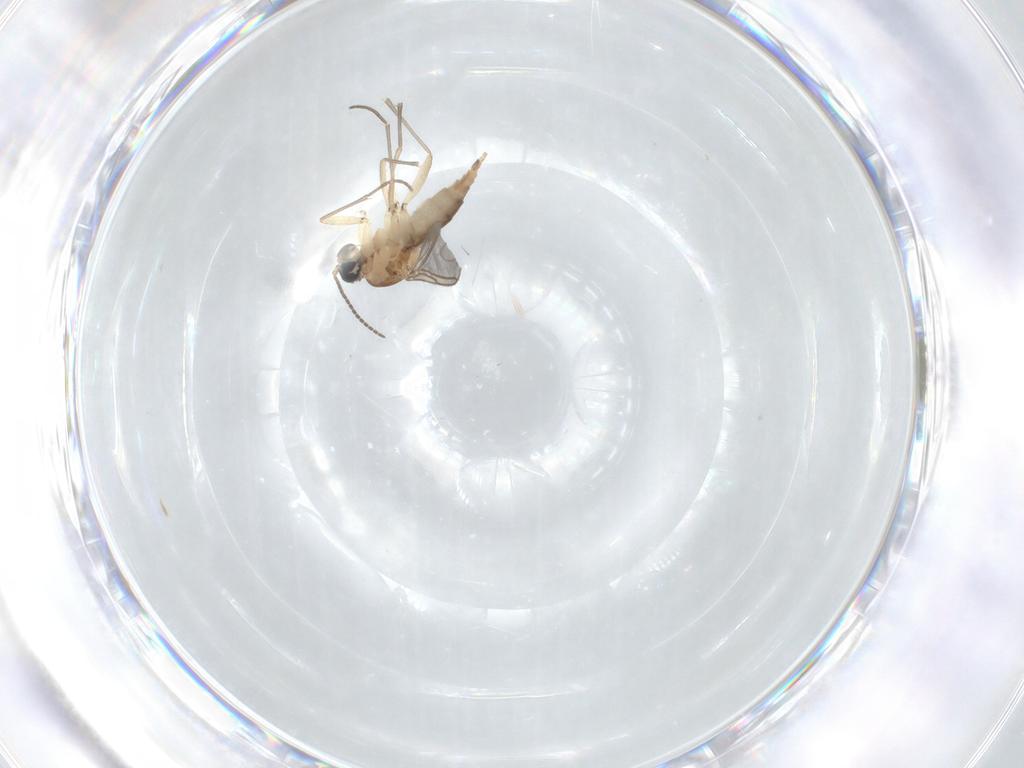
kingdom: Animalia
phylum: Arthropoda
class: Insecta
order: Diptera
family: Sciaridae
